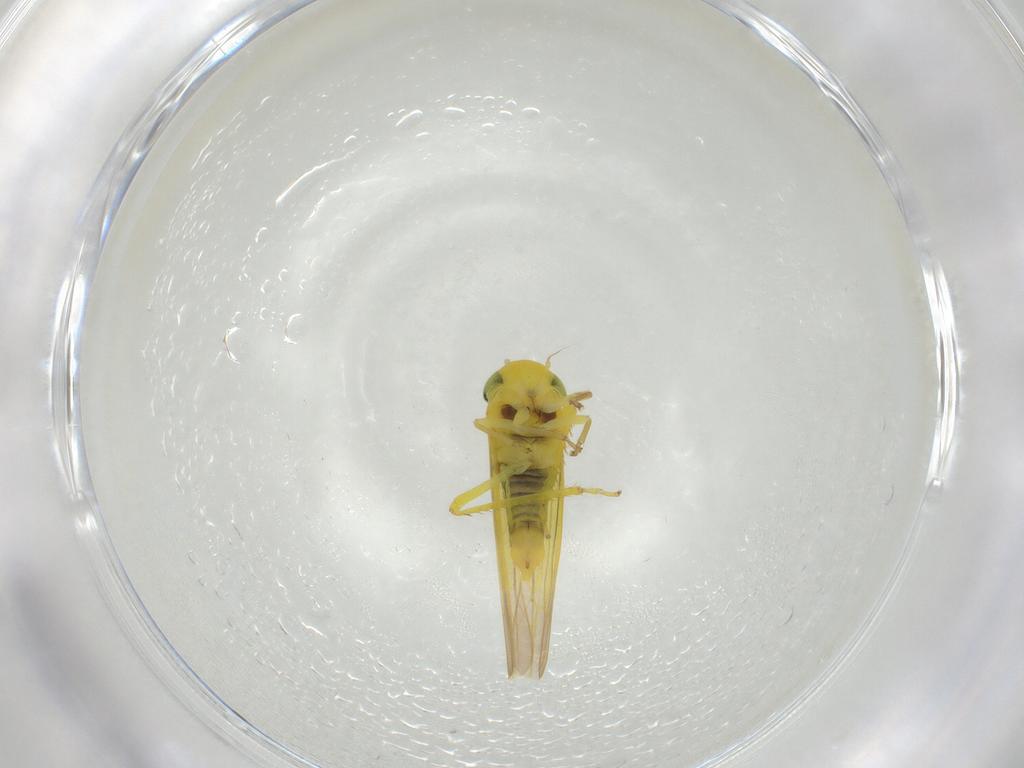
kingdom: Animalia
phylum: Arthropoda
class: Insecta
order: Hemiptera
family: Cicadellidae
